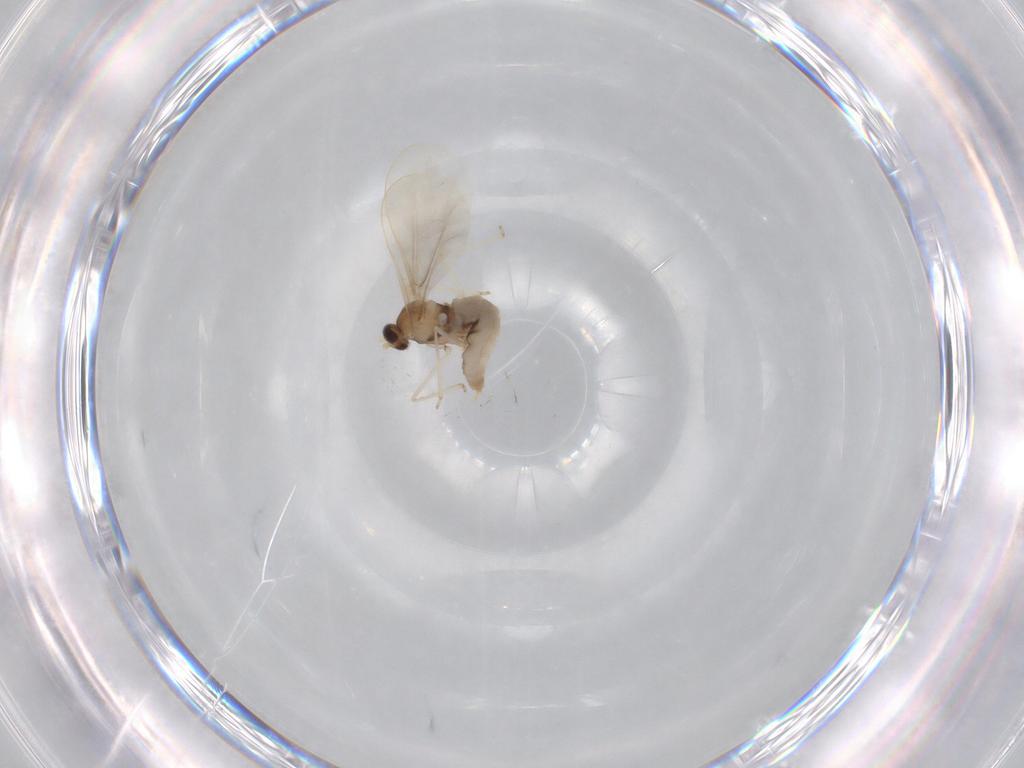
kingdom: Animalia
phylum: Arthropoda
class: Insecta
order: Diptera
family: Cecidomyiidae
